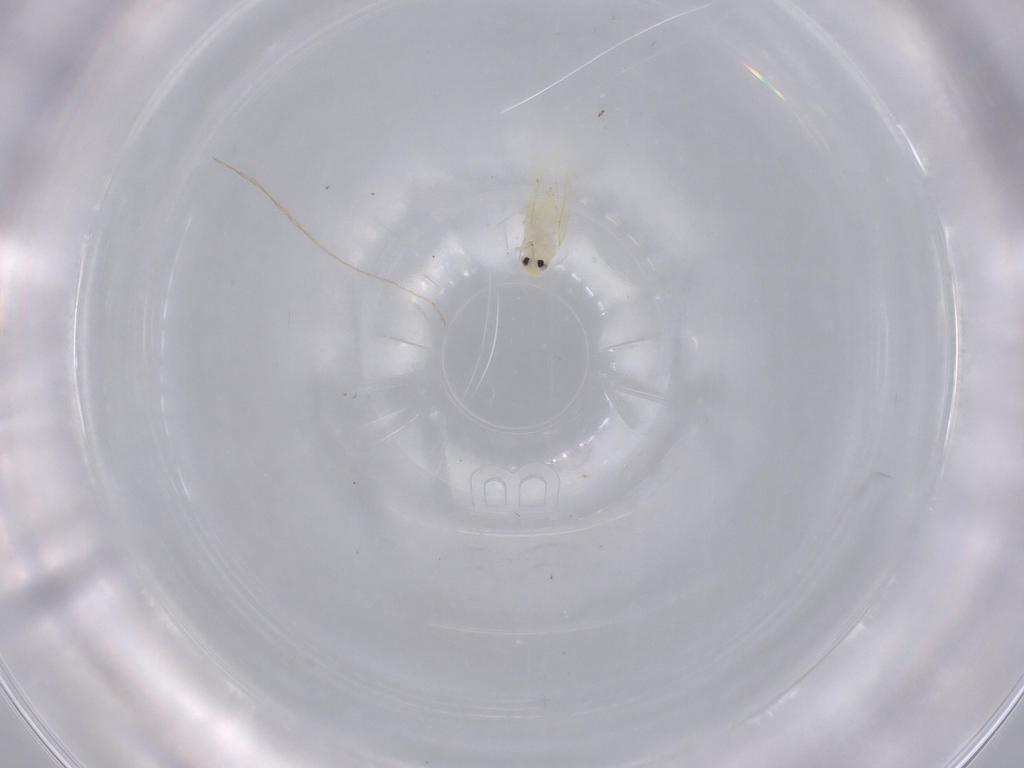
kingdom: Animalia
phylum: Arthropoda
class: Insecta
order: Hemiptera
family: Aleyrodidae
